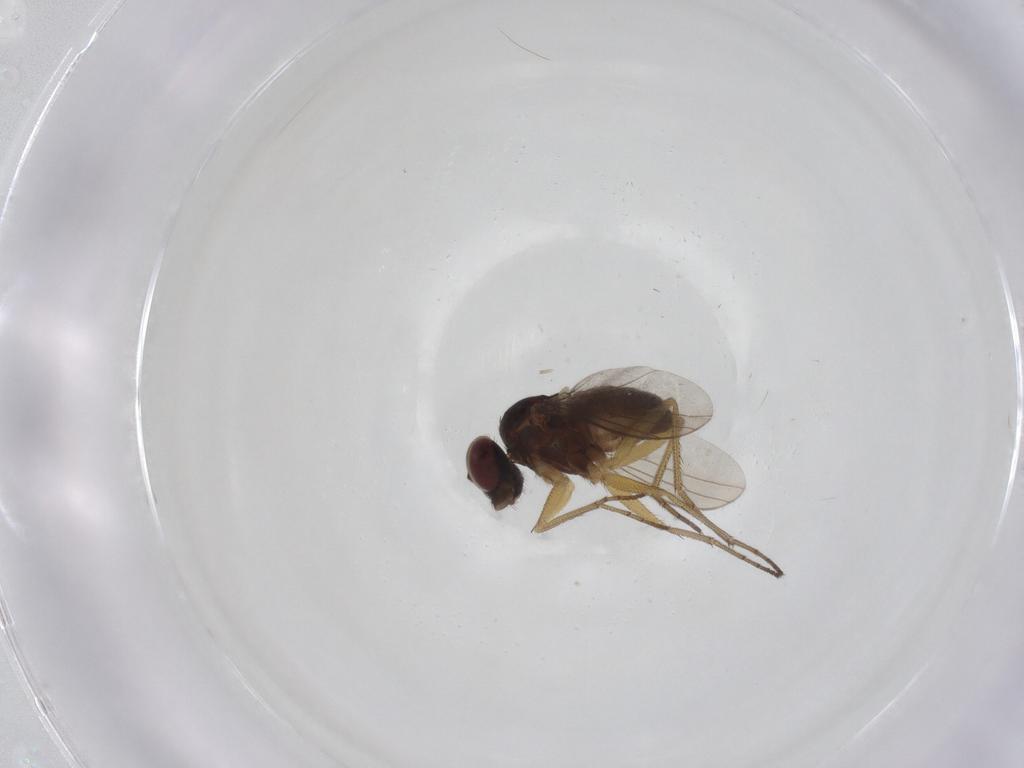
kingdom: Animalia
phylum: Arthropoda
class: Insecta
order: Diptera
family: Dolichopodidae
